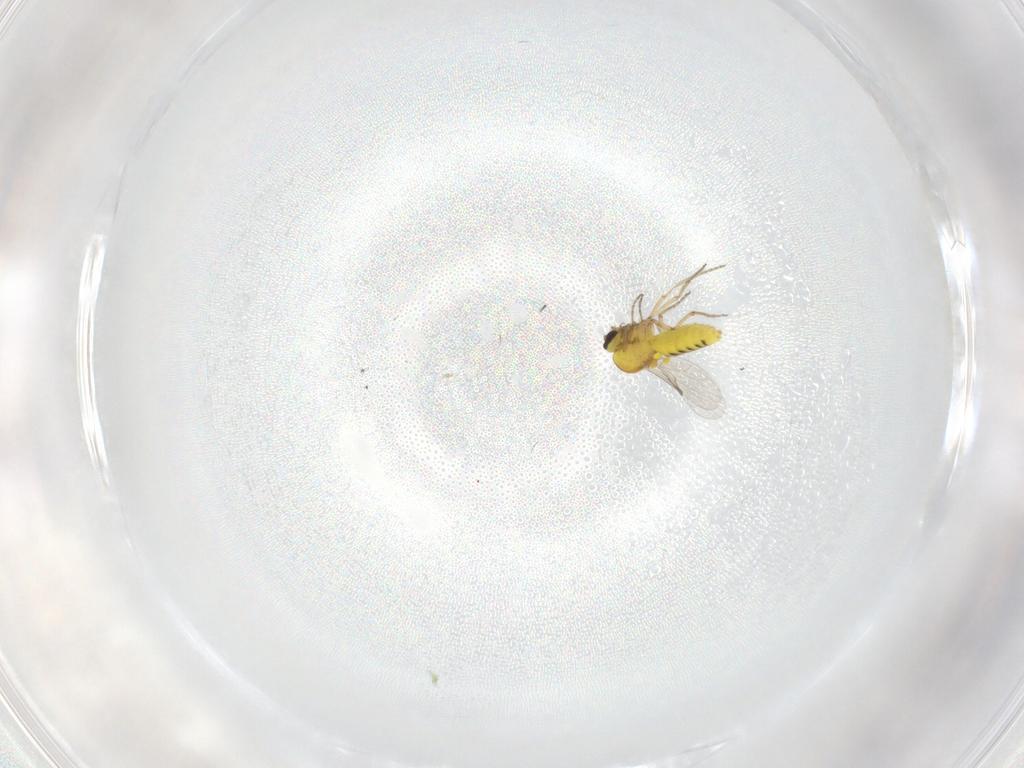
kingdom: Animalia
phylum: Arthropoda
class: Insecta
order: Diptera
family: Ceratopogonidae
